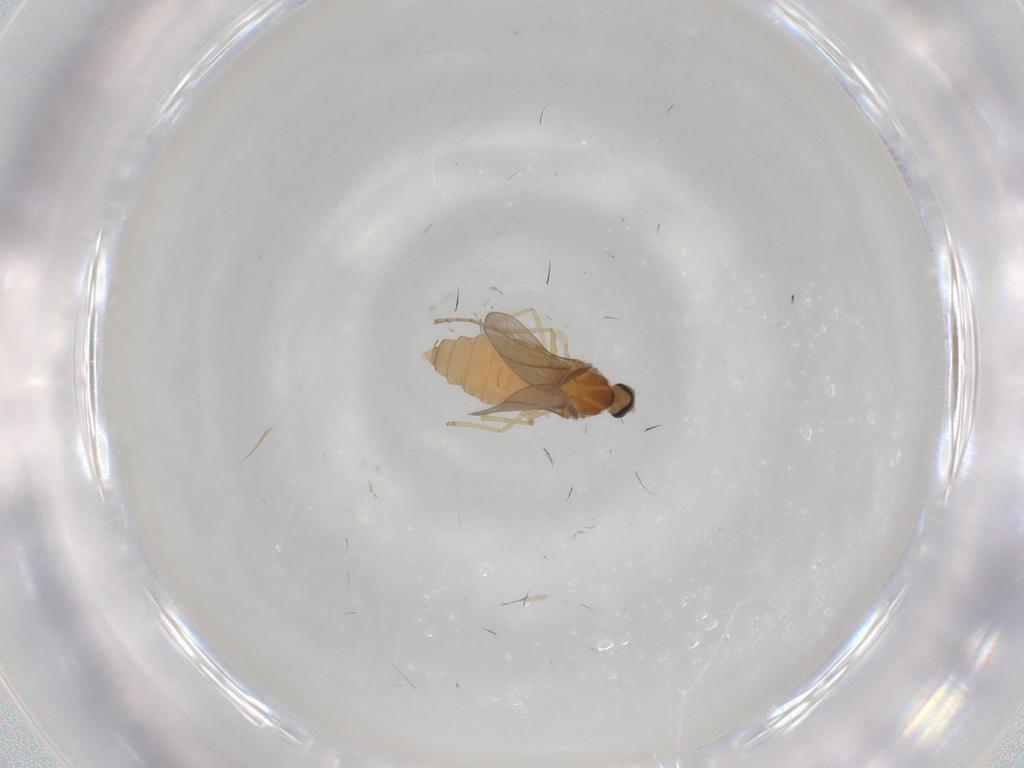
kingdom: Animalia
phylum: Arthropoda
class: Insecta
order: Diptera
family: Cecidomyiidae
